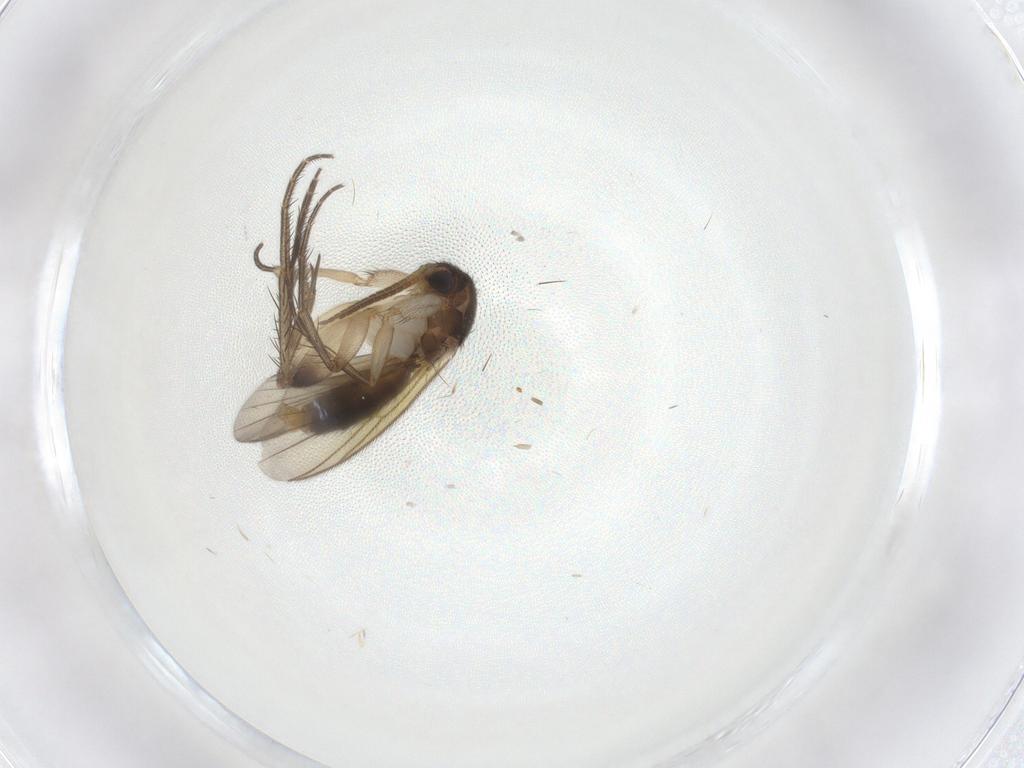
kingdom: Animalia
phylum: Arthropoda
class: Insecta
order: Diptera
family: Mycetophilidae
